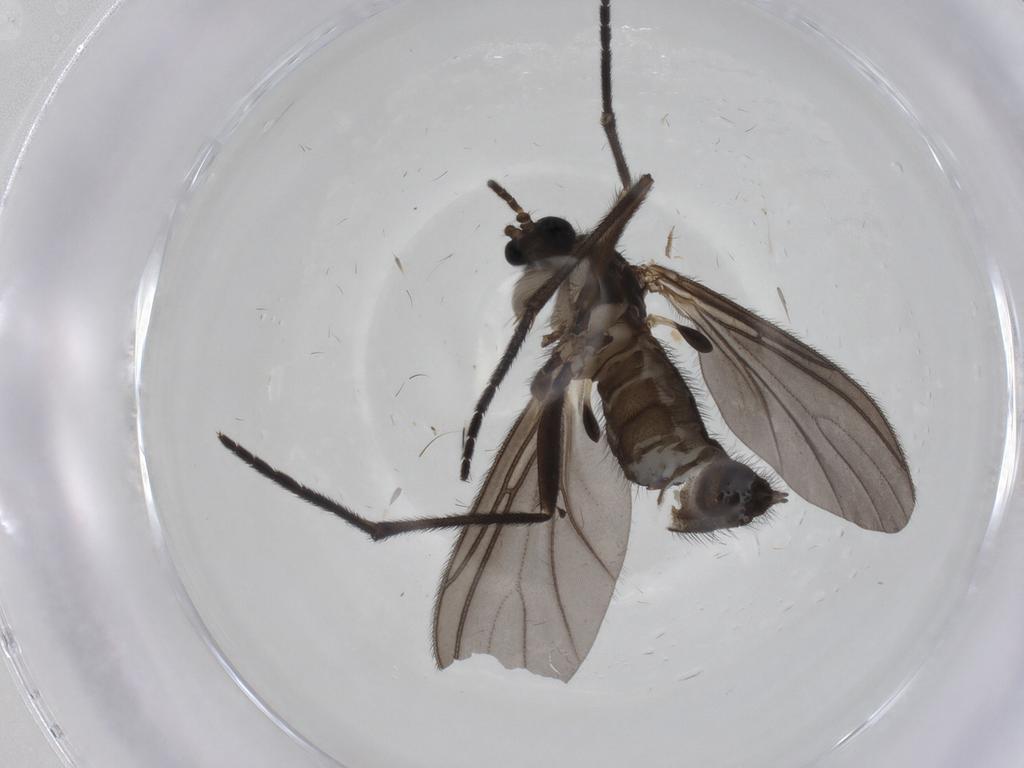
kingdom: Animalia
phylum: Arthropoda
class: Insecta
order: Diptera
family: Sciaridae
